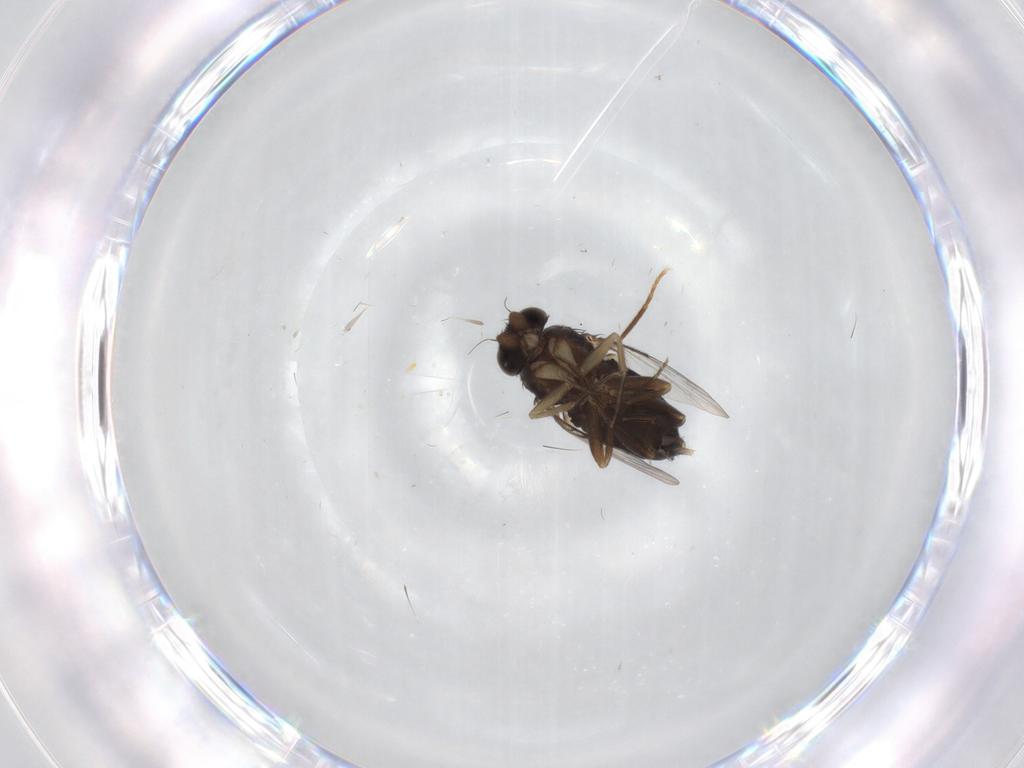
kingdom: Animalia
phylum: Arthropoda
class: Insecta
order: Diptera
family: Phoridae
